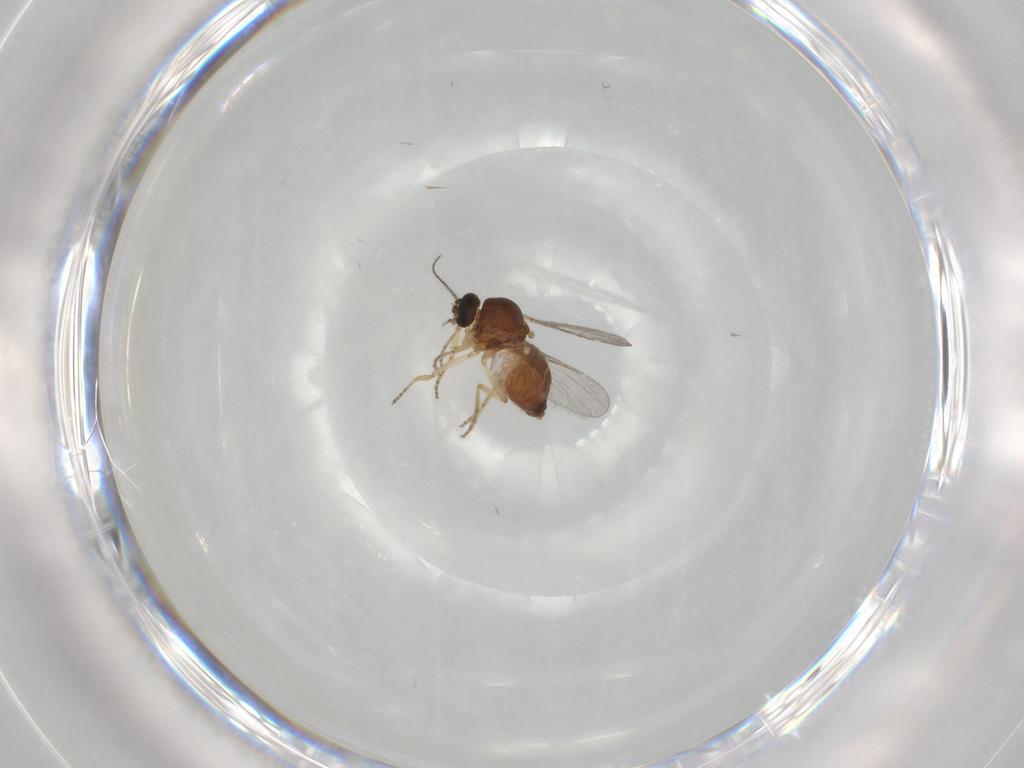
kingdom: Animalia
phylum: Arthropoda
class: Insecta
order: Diptera
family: Ceratopogonidae
